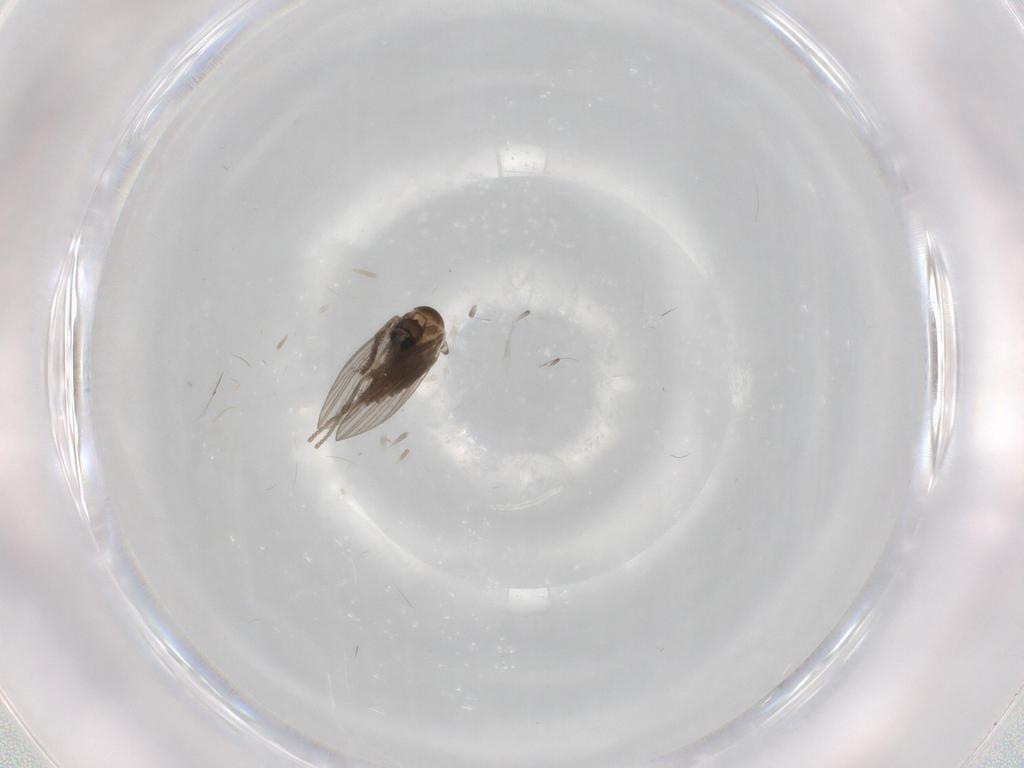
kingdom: Animalia
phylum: Arthropoda
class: Insecta
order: Diptera
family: Psychodidae
